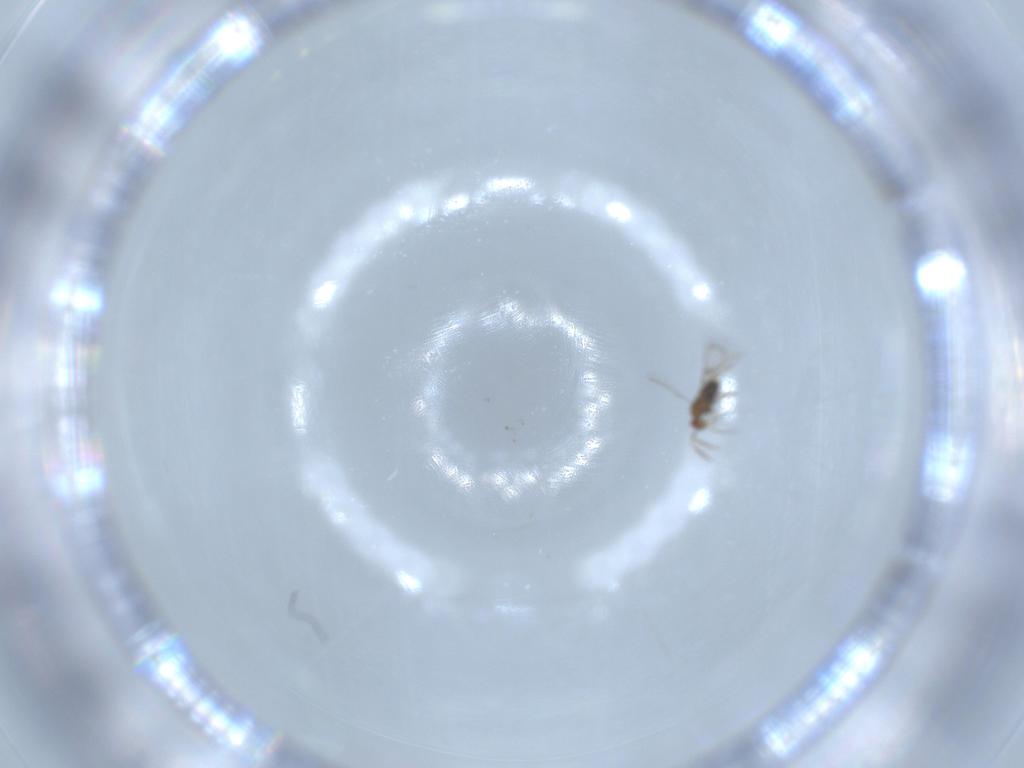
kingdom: Animalia
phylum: Arthropoda
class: Insecta
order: Hymenoptera
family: Trichogrammatidae
